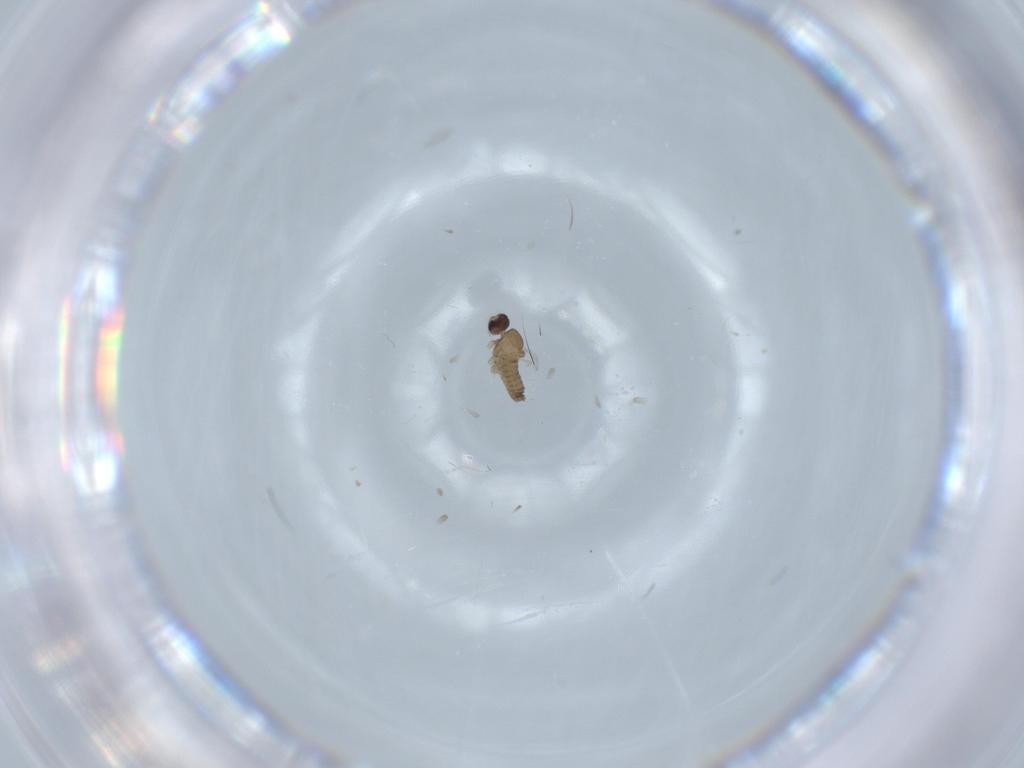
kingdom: Animalia
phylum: Arthropoda
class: Insecta
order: Diptera
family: Cecidomyiidae
